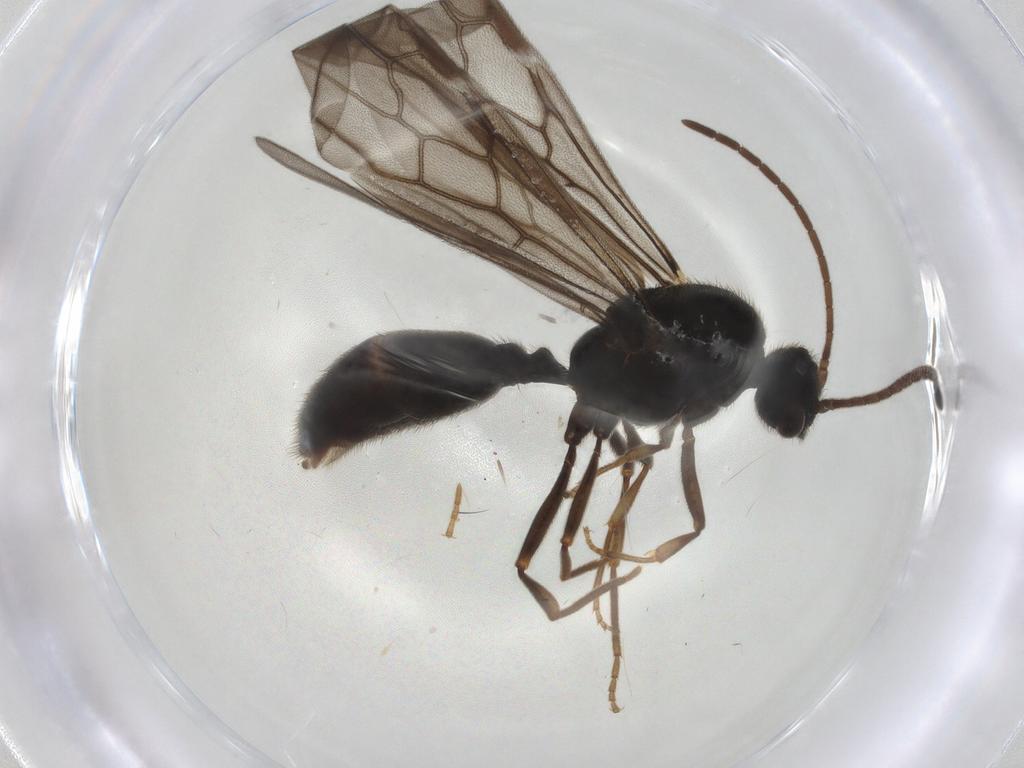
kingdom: Animalia
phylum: Arthropoda
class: Insecta
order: Hymenoptera
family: Formicidae
